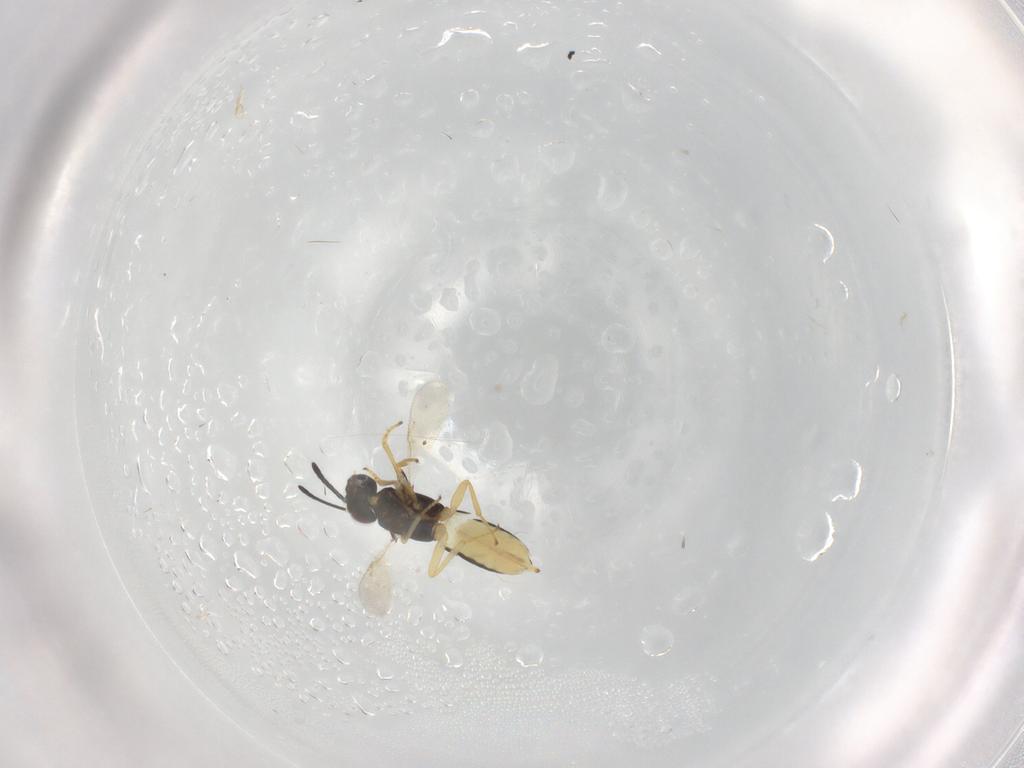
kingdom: Animalia
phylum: Arthropoda
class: Insecta
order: Hymenoptera
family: Encyrtidae
